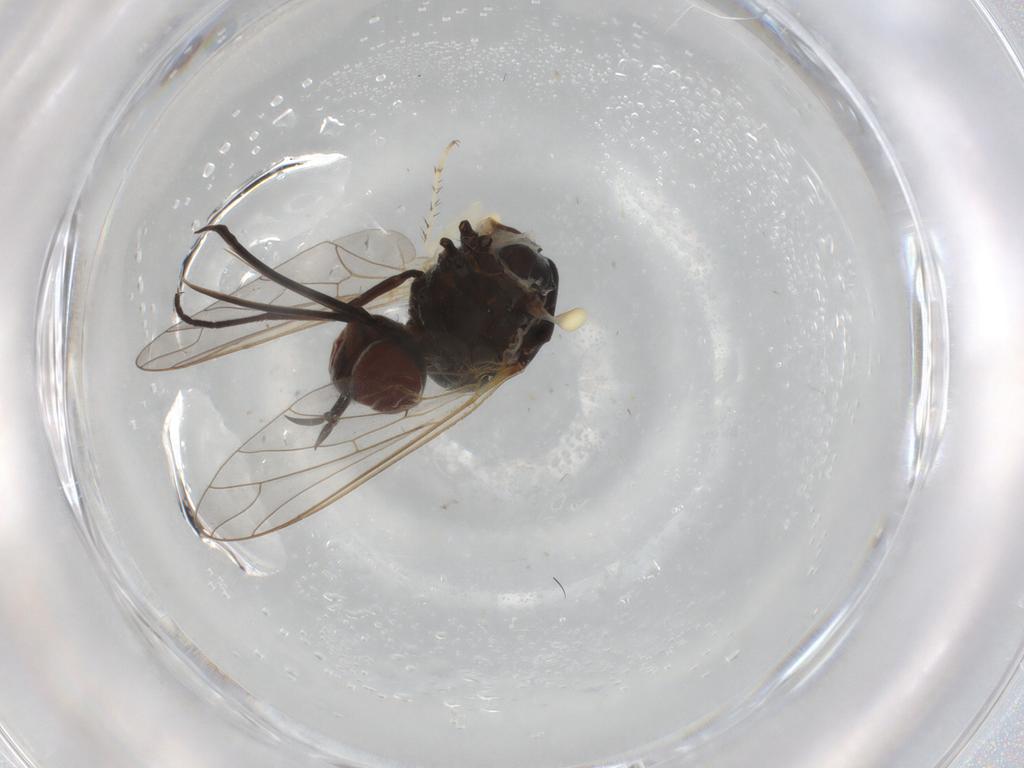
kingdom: Animalia
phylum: Arthropoda
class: Insecta
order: Diptera
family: Bombyliidae
